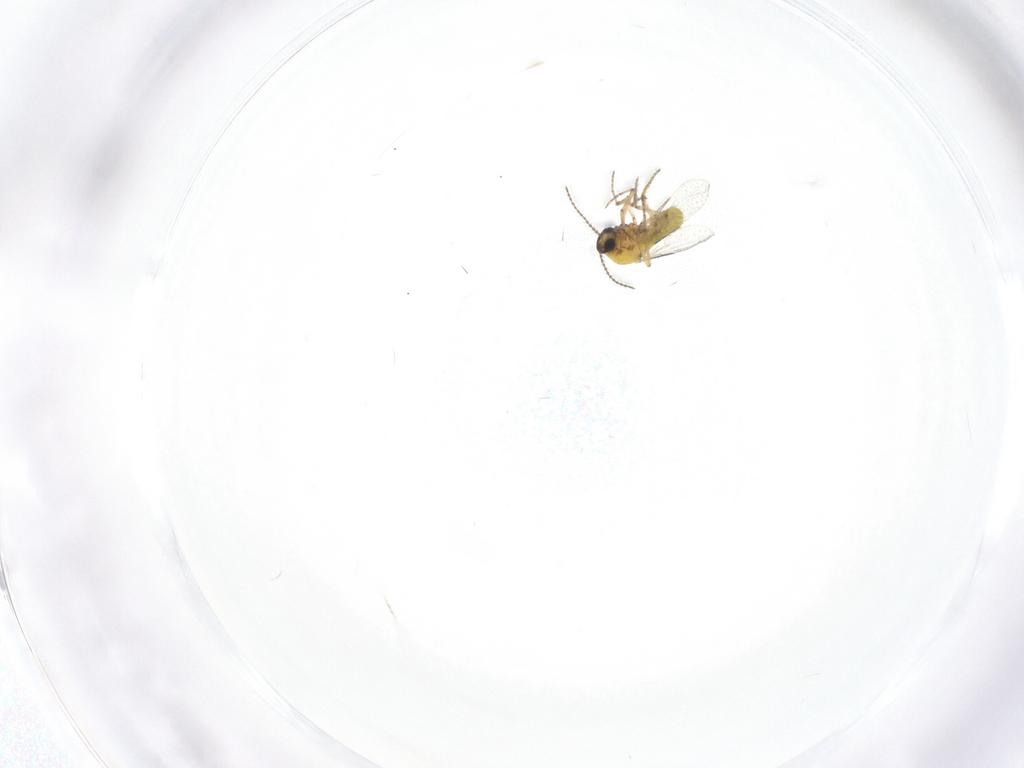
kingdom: Animalia
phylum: Arthropoda
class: Insecta
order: Diptera
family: Ceratopogonidae
